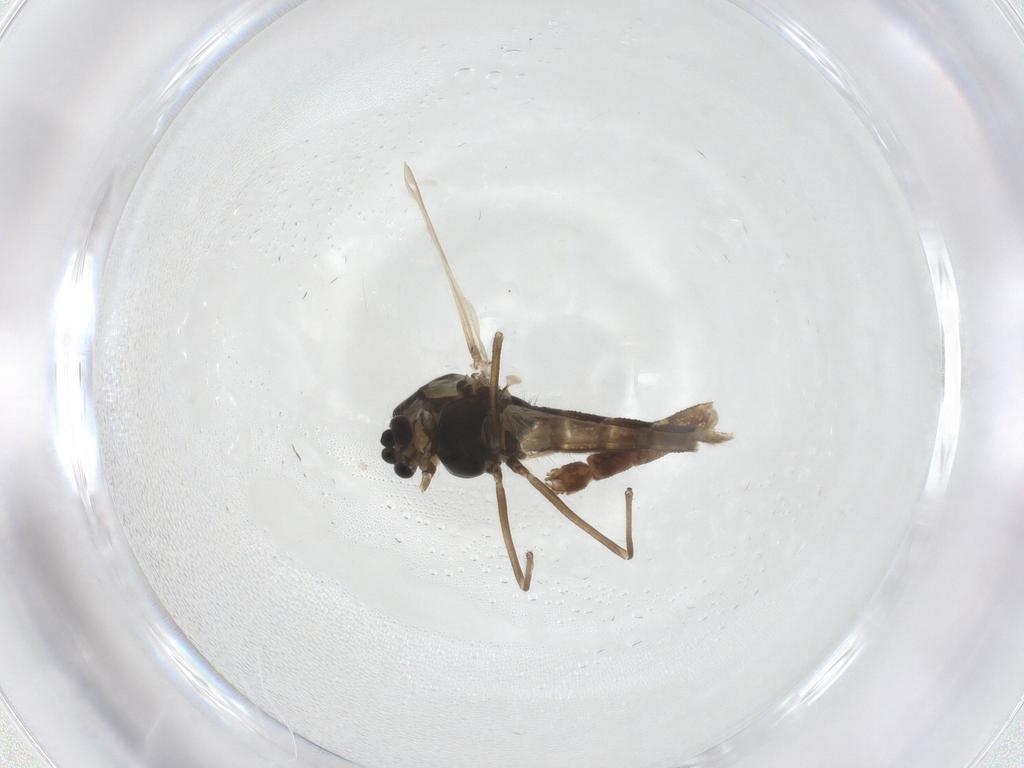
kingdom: Animalia
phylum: Arthropoda
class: Insecta
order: Diptera
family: Chironomidae
